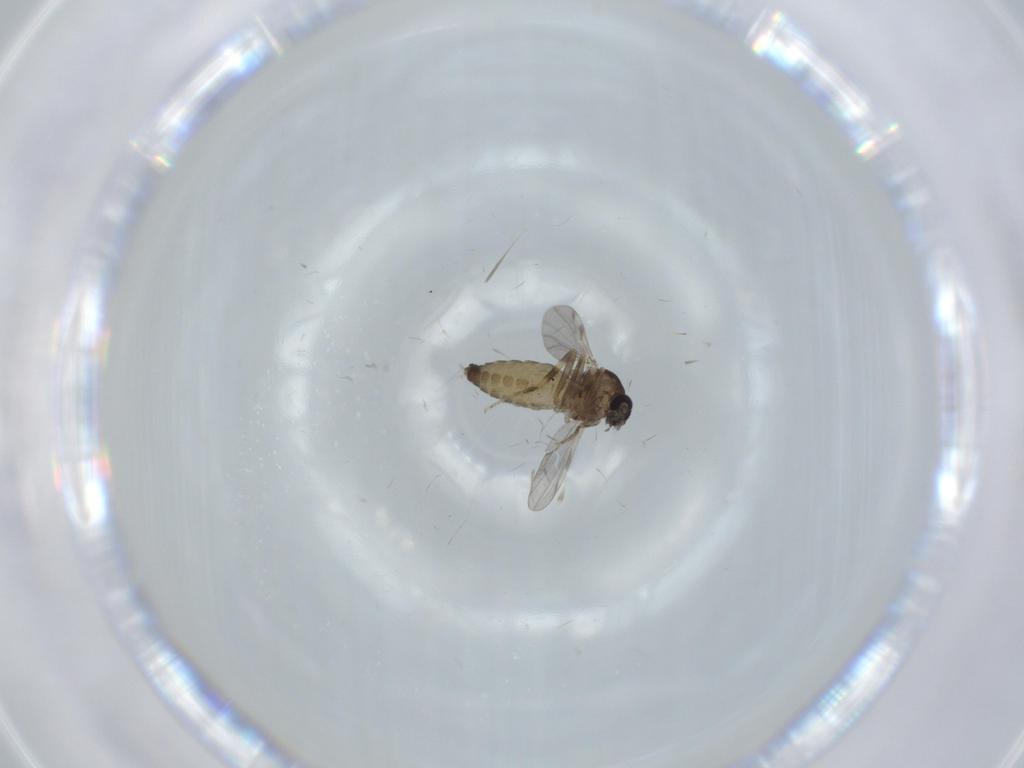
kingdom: Animalia
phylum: Arthropoda
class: Insecta
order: Diptera
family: Ceratopogonidae
